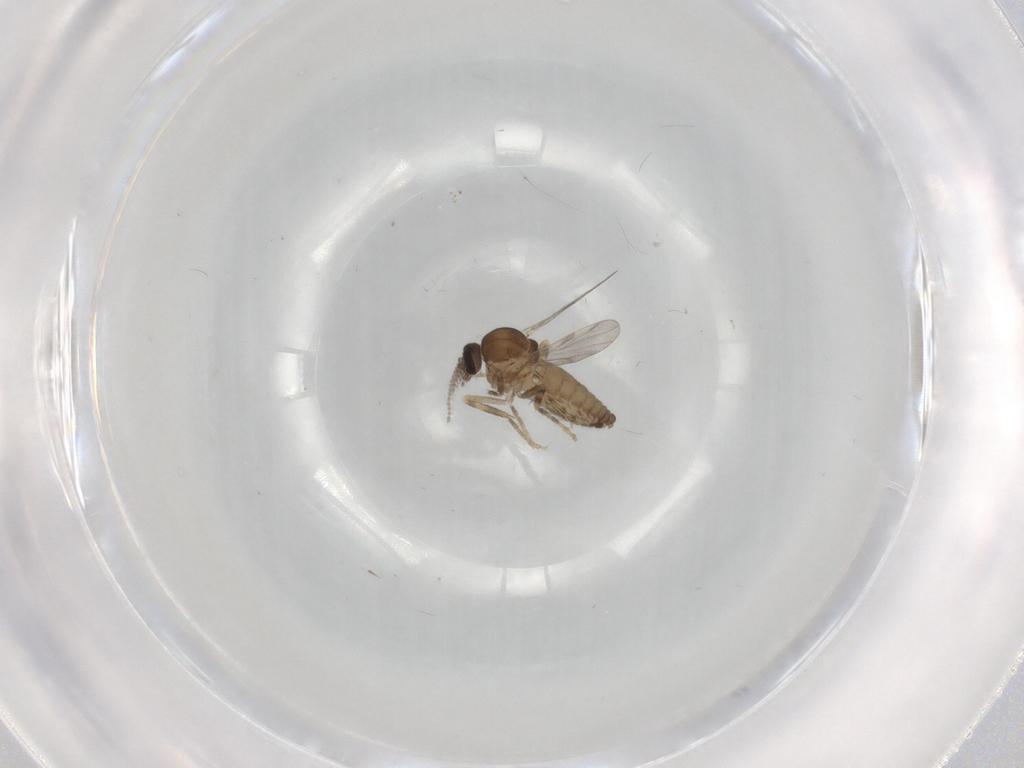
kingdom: Animalia
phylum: Arthropoda
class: Insecta
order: Diptera
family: Ceratopogonidae
